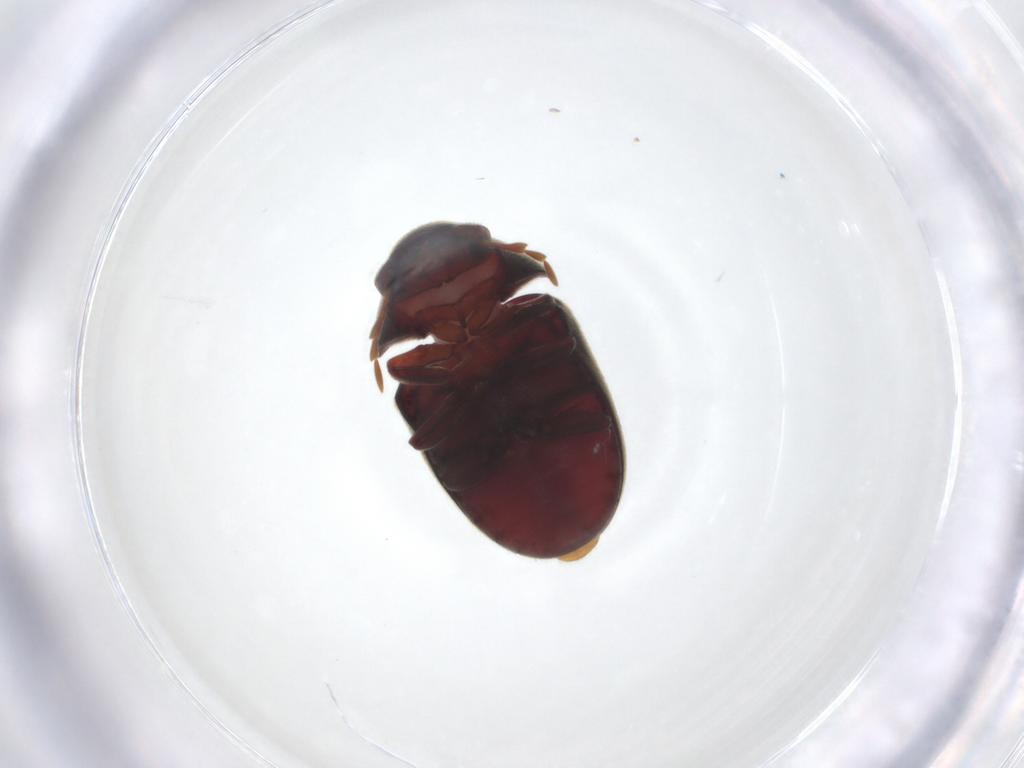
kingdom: Animalia
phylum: Arthropoda
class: Insecta
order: Coleoptera
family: Ptinidae
